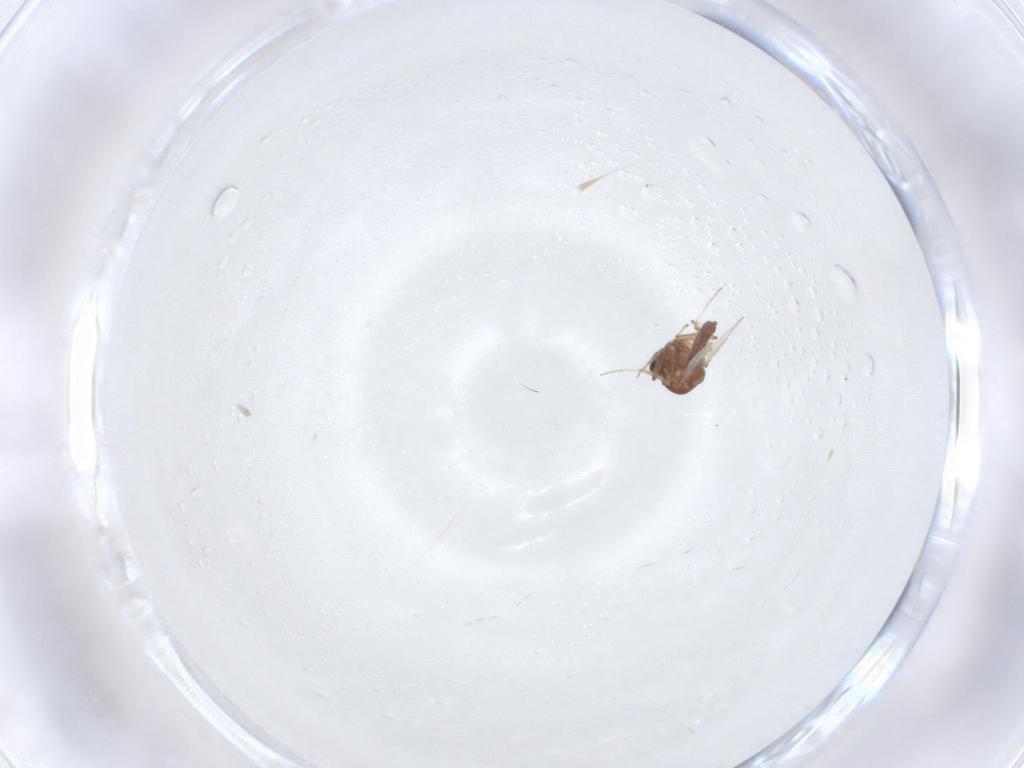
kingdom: Animalia
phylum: Arthropoda
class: Insecta
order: Diptera
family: Ceratopogonidae
